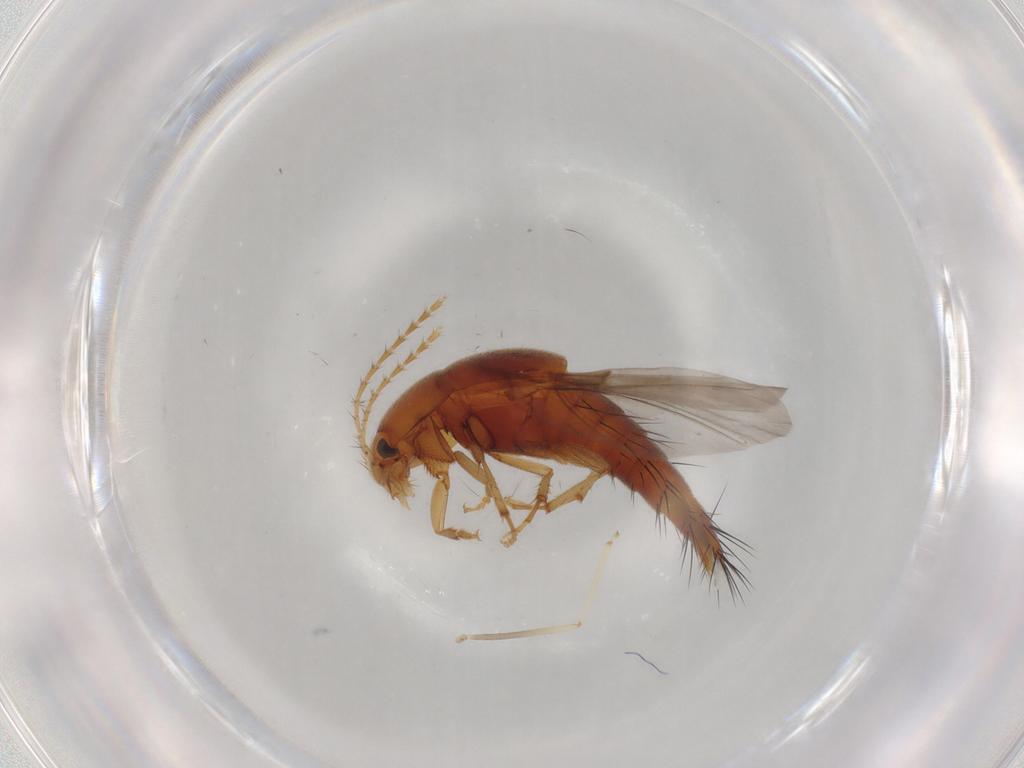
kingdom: Animalia
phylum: Arthropoda
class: Insecta
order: Coleoptera
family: Staphylinidae
